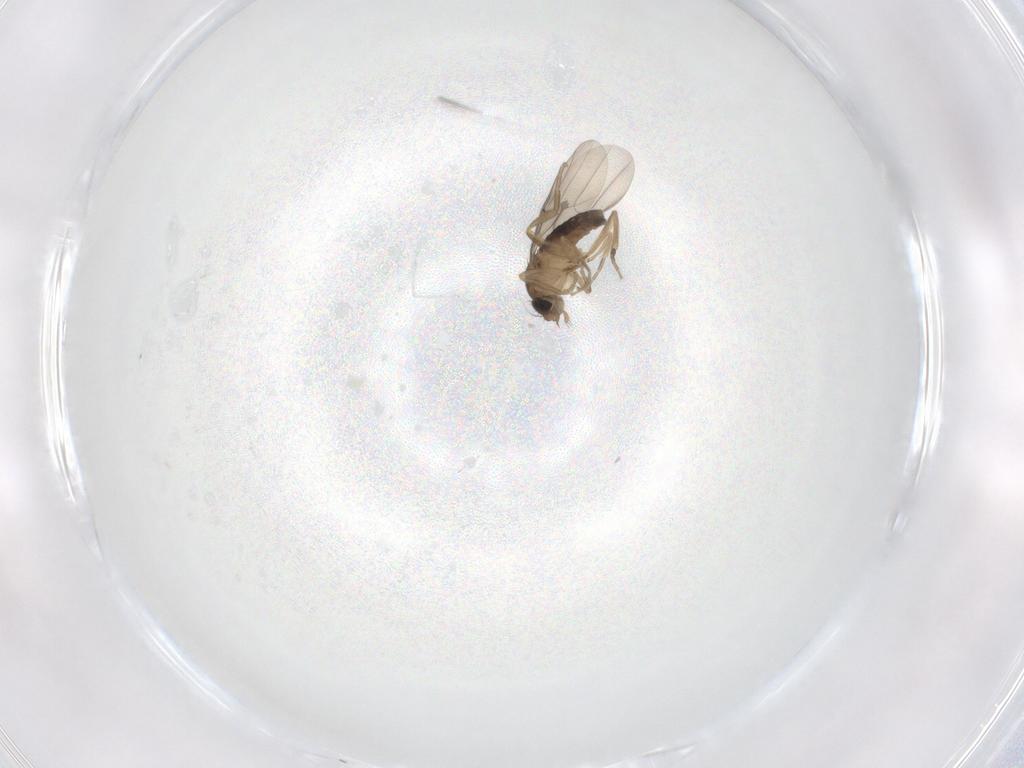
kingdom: Animalia
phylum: Arthropoda
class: Insecta
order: Diptera
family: Phoridae
